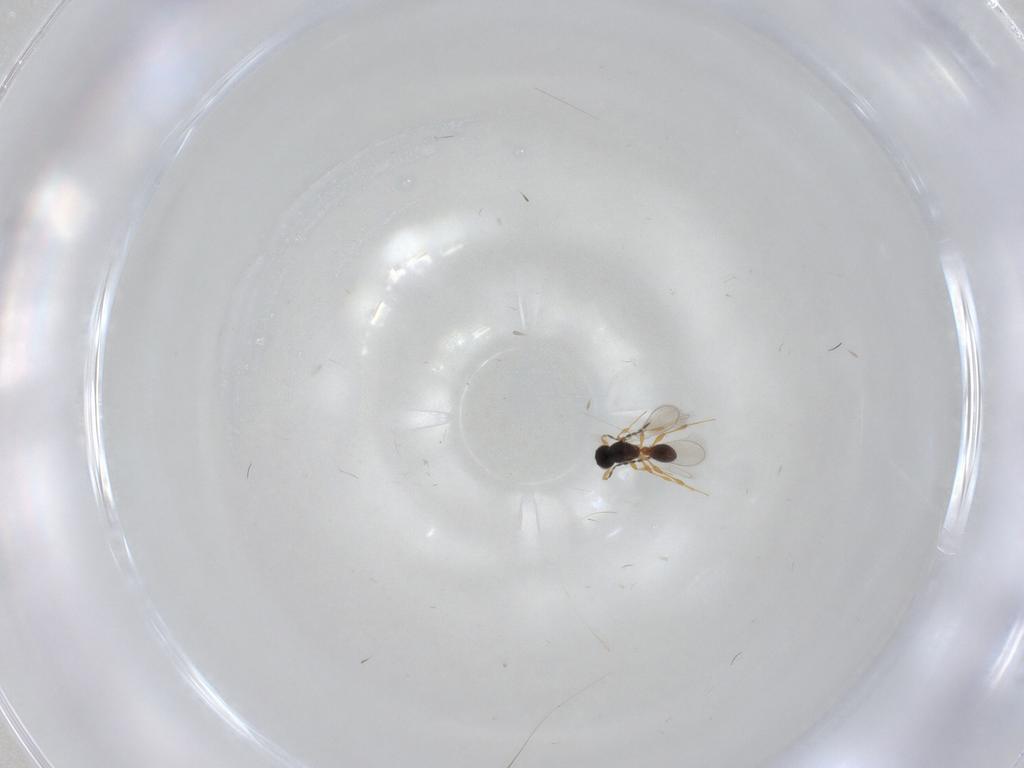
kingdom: Animalia
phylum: Arthropoda
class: Insecta
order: Hymenoptera
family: Platygastridae
